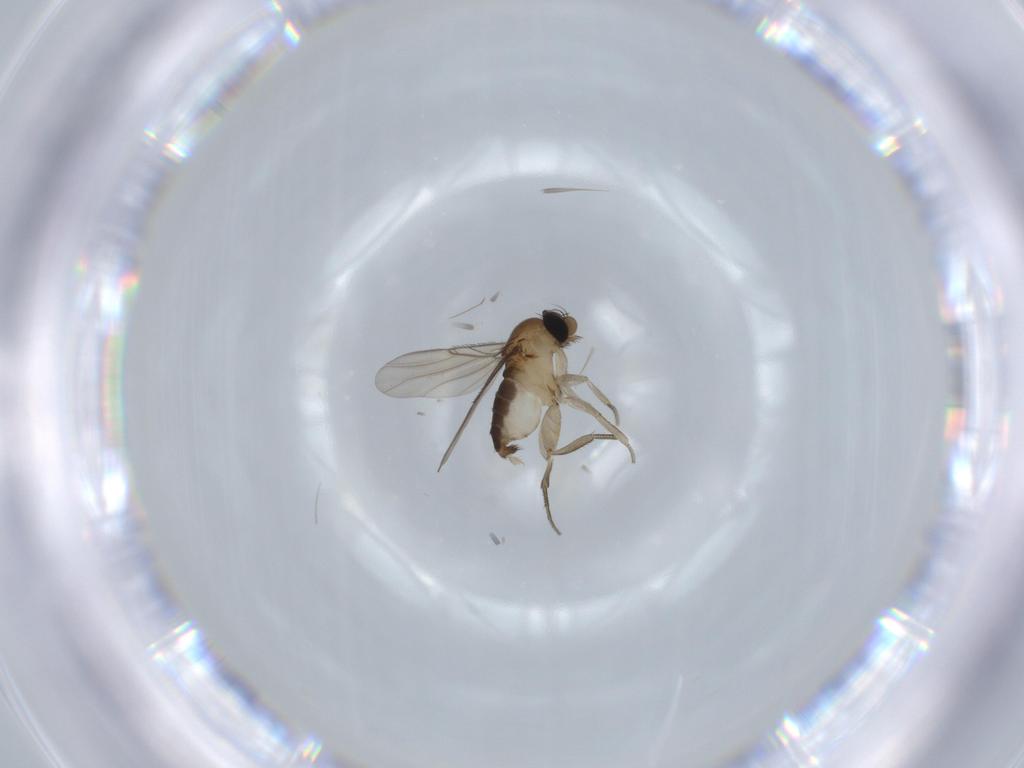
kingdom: Animalia
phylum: Arthropoda
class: Insecta
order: Diptera
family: Phoridae
